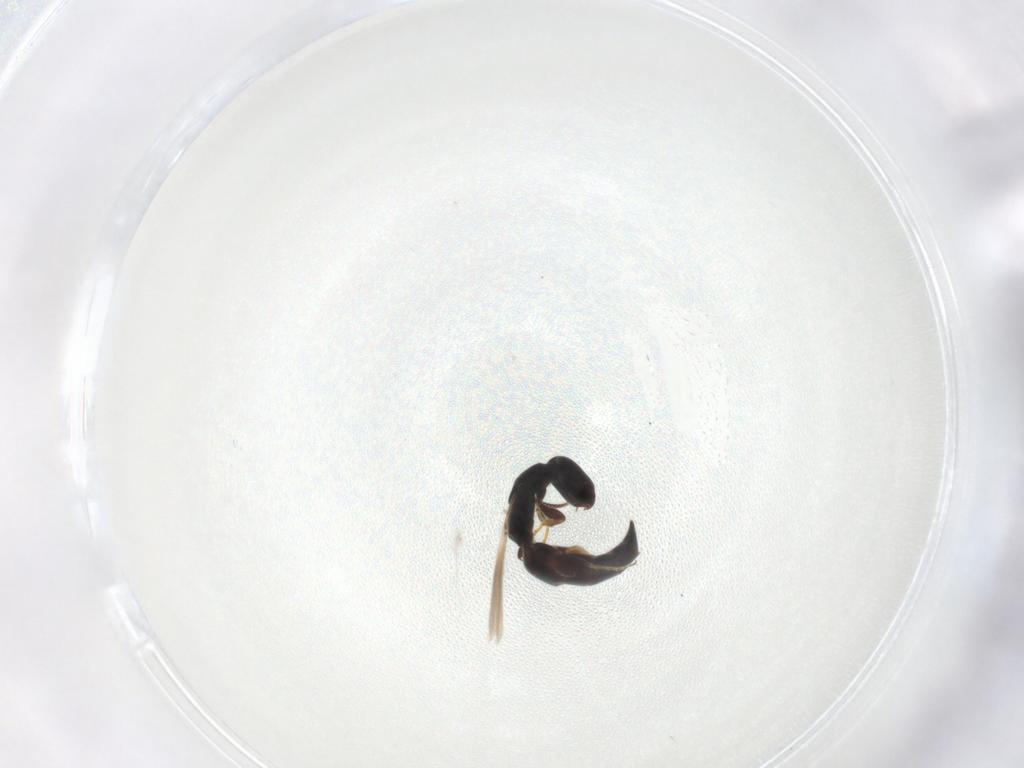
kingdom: Animalia
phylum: Arthropoda
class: Insecta
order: Hymenoptera
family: Bethylidae
